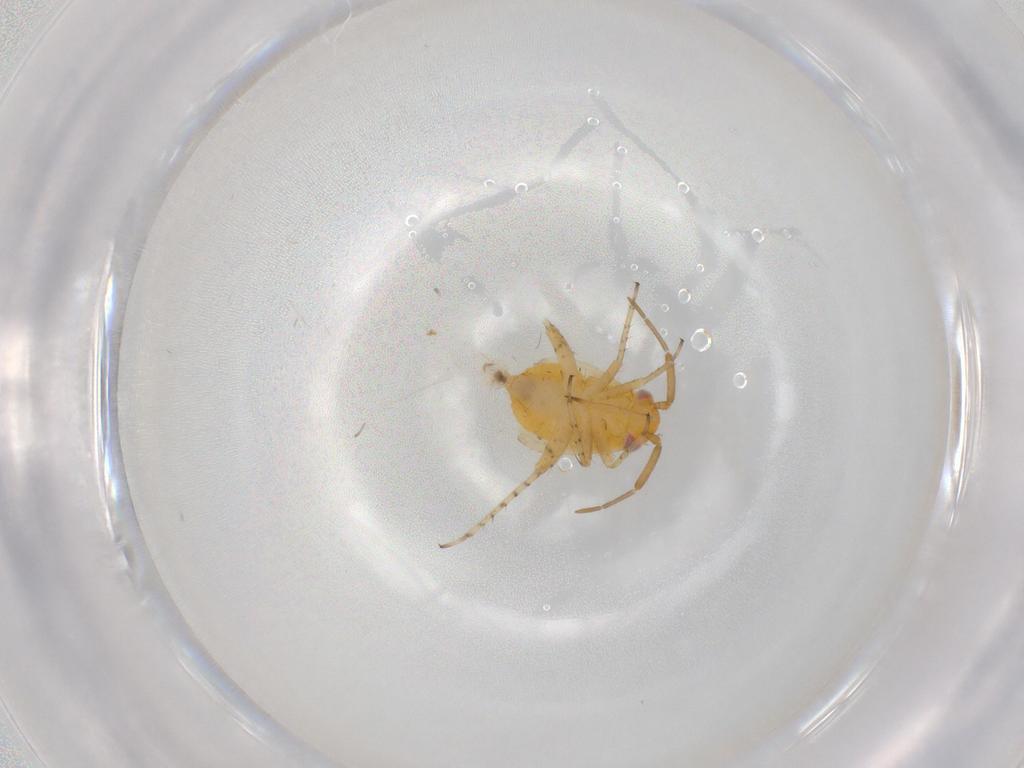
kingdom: Animalia
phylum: Arthropoda
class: Insecta
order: Hemiptera
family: Miridae
